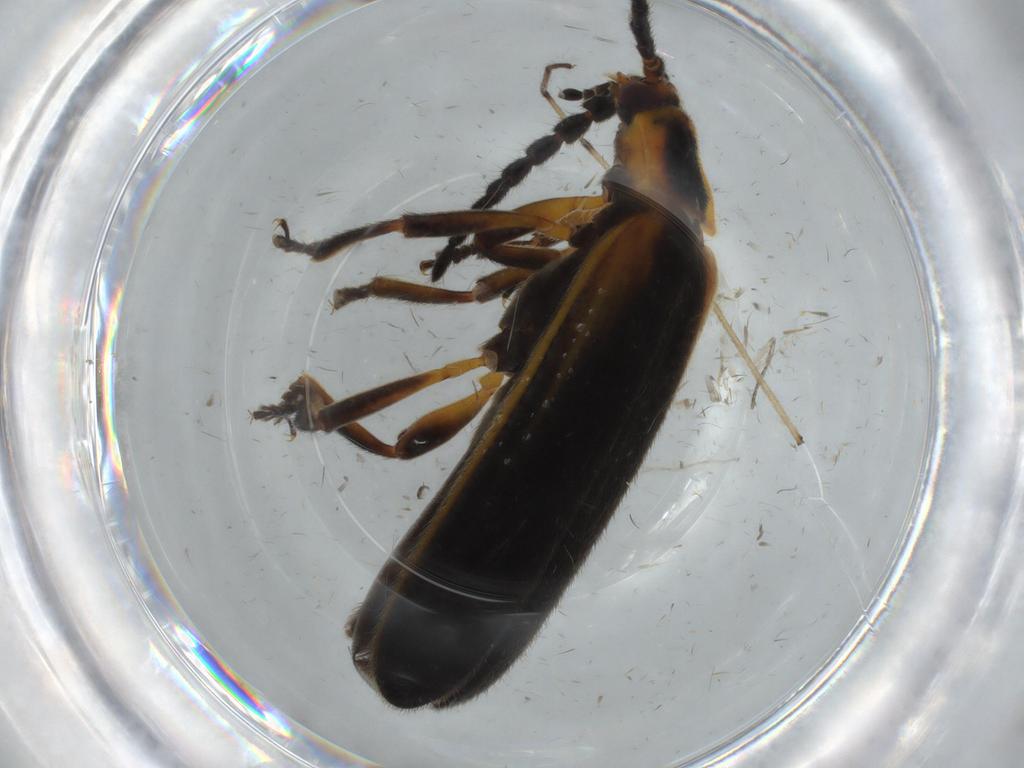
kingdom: Animalia
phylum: Arthropoda
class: Insecta
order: Coleoptera
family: Lycidae
